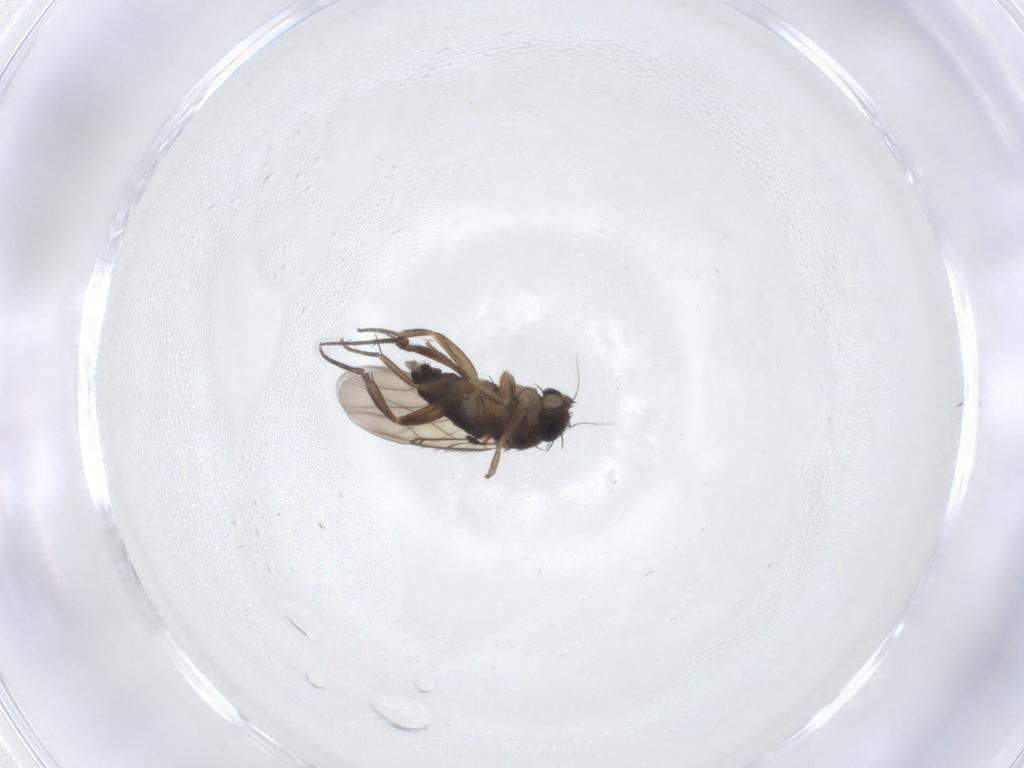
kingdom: Animalia
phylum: Arthropoda
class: Insecta
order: Diptera
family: Phoridae
